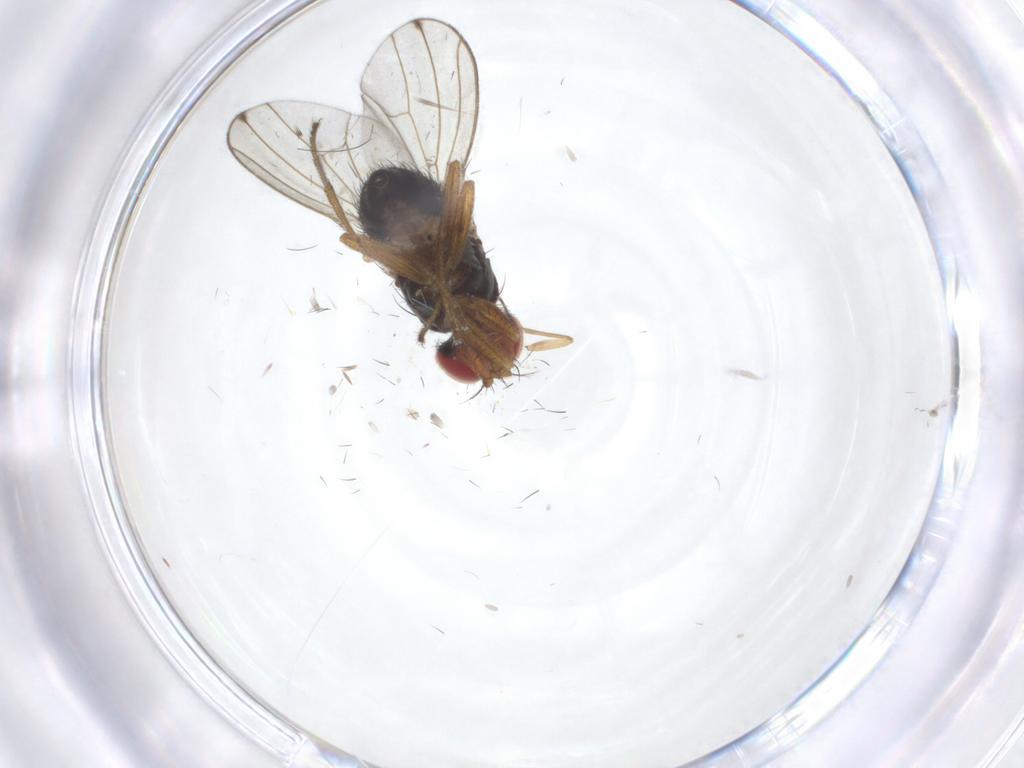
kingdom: Animalia
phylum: Arthropoda
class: Insecta
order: Diptera
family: Drosophilidae
